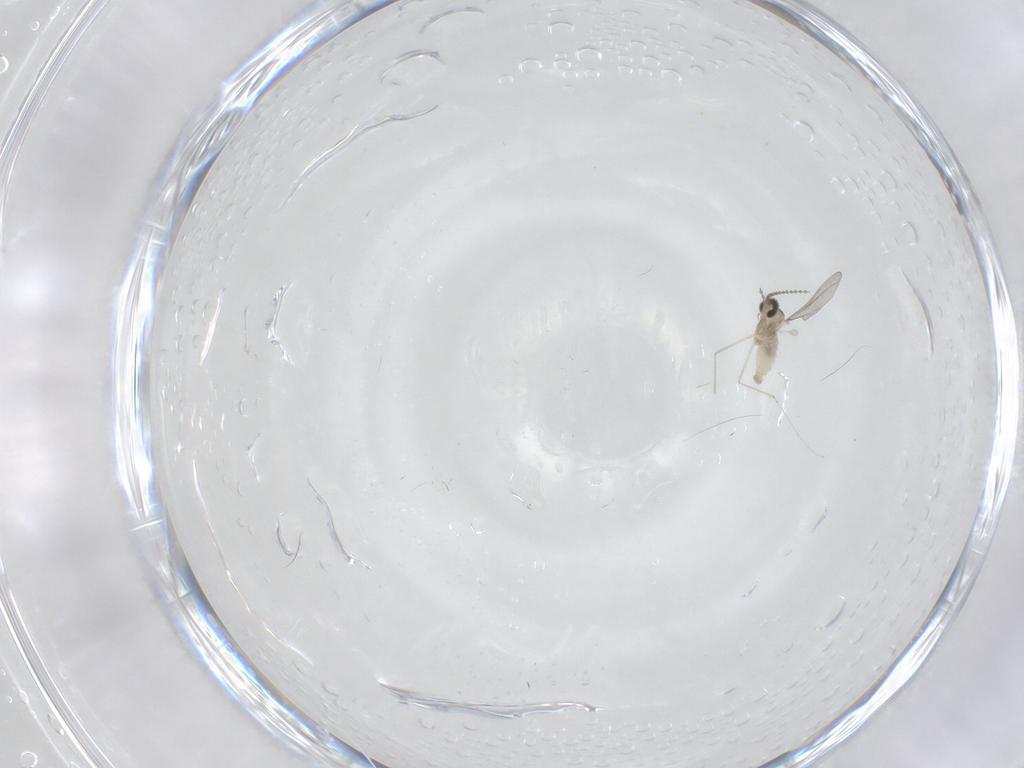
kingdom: Animalia
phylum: Arthropoda
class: Insecta
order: Diptera
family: Cecidomyiidae
